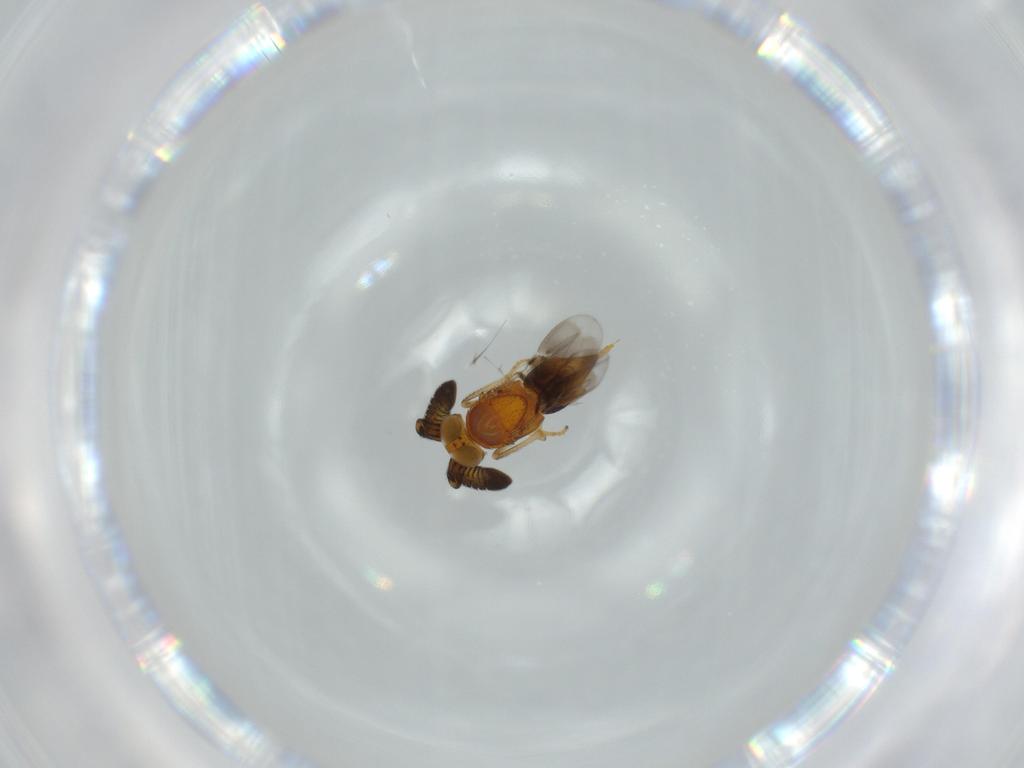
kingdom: Animalia
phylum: Arthropoda
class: Insecta
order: Hymenoptera
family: Encyrtidae
